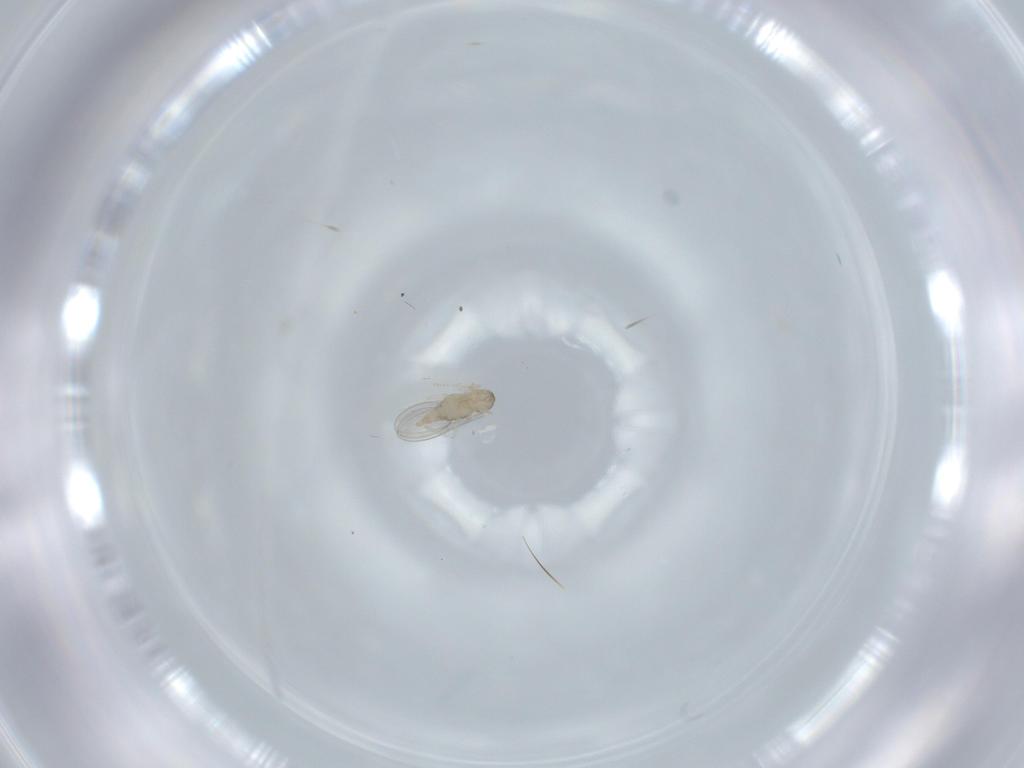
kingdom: Animalia
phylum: Arthropoda
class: Insecta
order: Diptera
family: Cecidomyiidae
